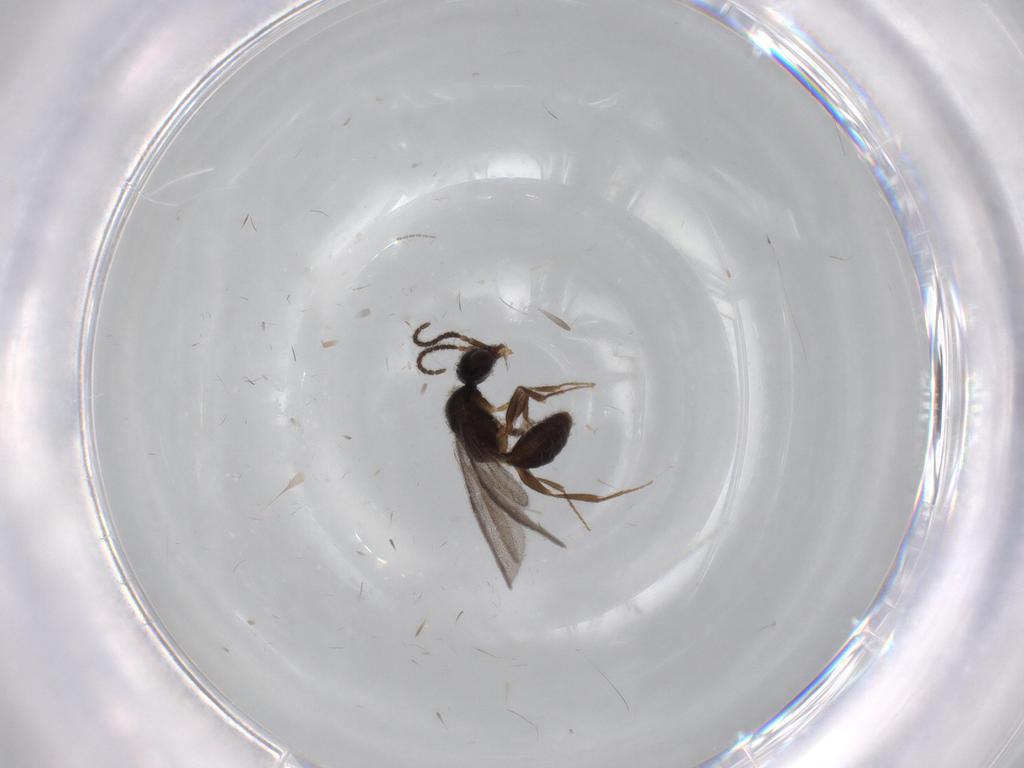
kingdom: Animalia
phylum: Arthropoda
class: Insecta
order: Hymenoptera
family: Bethylidae
